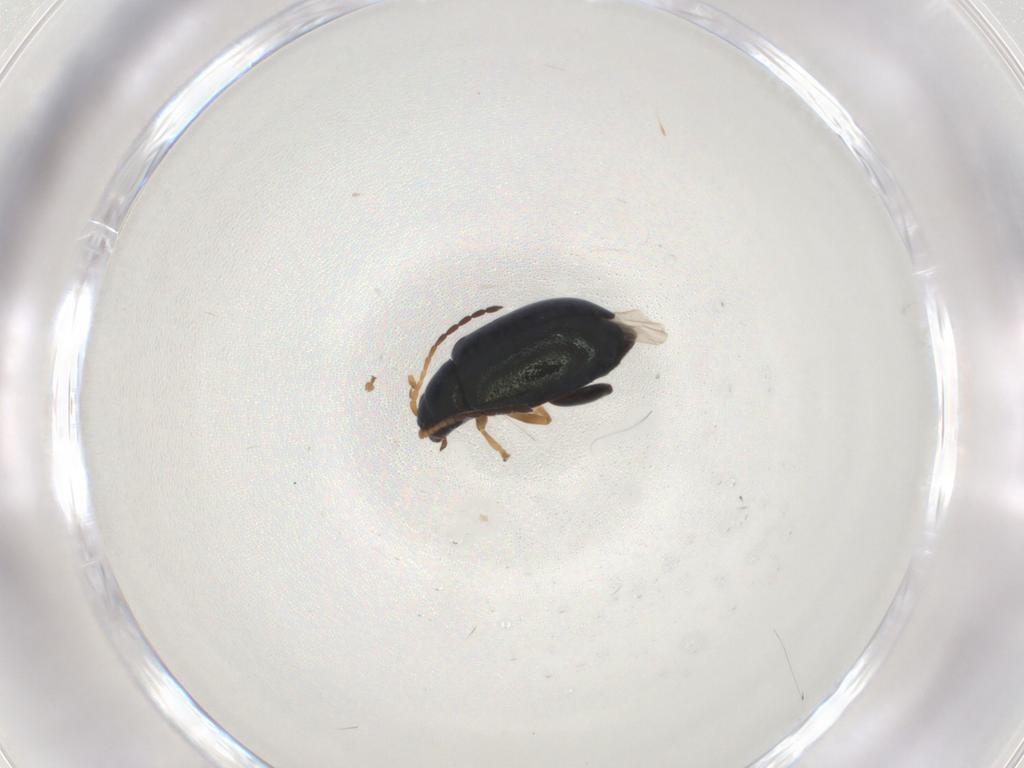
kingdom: Animalia
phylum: Arthropoda
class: Insecta
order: Coleoptera
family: Chrysomelidae
